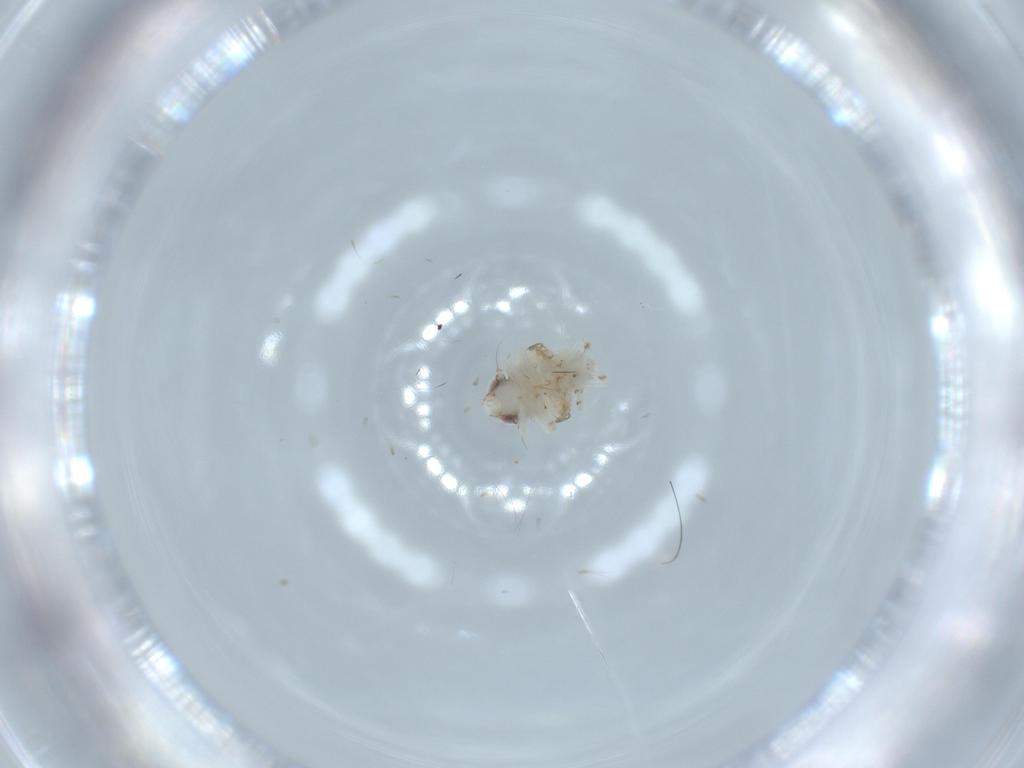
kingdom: Animalia
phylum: Arthropoda
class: Insecta
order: Hemiptera
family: Nogodinidae
